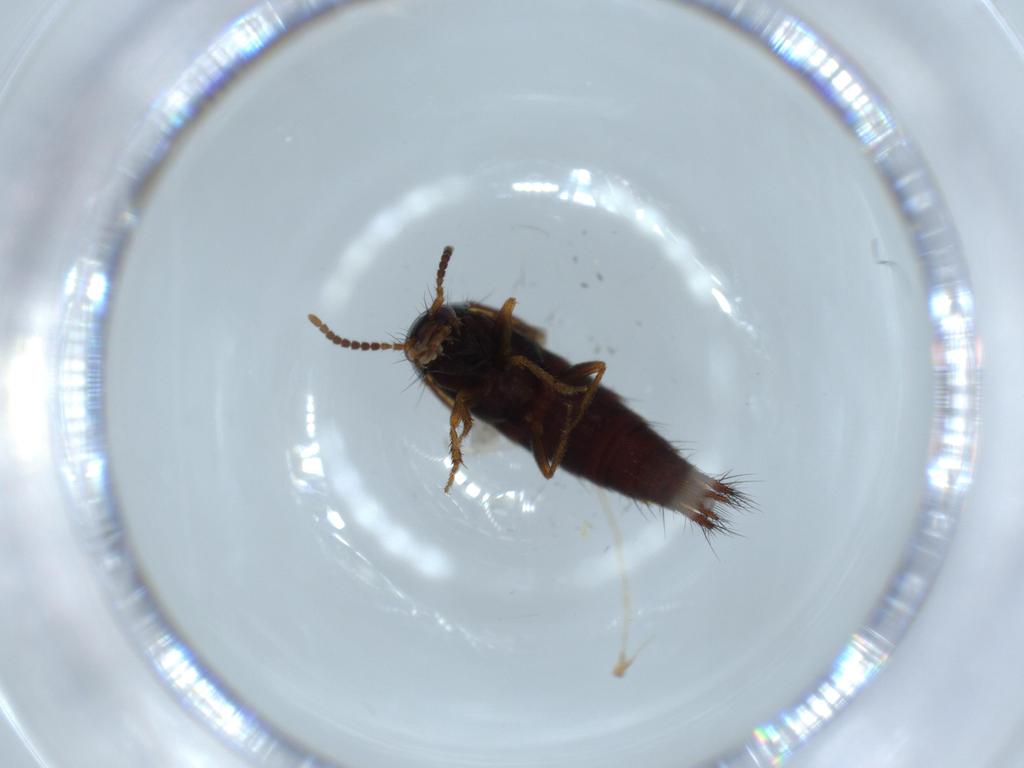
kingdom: Animalia
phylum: Arthropoda
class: Insecta
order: Coleoptera
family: Staphylinidae
